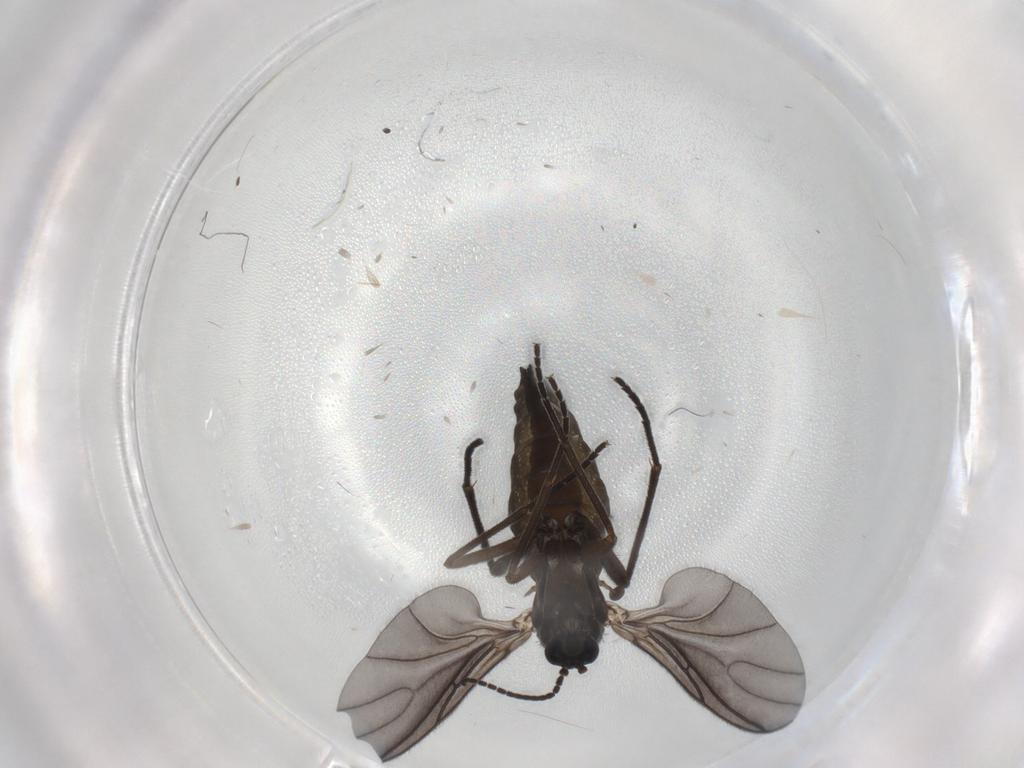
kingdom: Animalia
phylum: Arthropoda
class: Insecta
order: Diptera
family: Sciaridae
